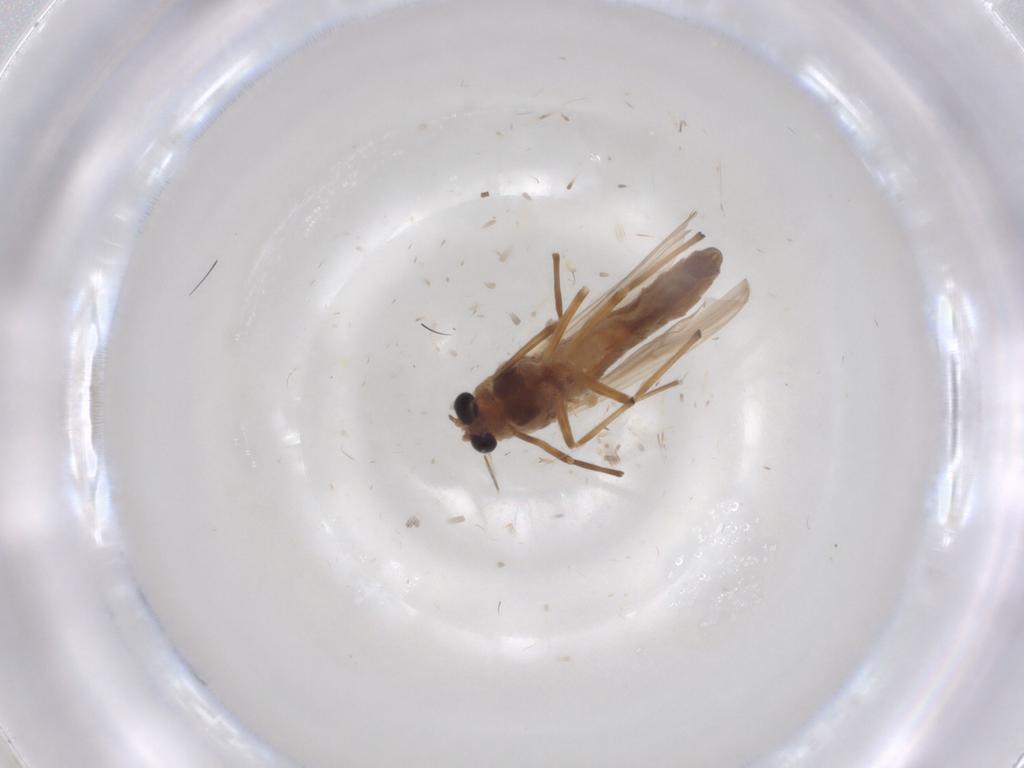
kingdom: Animalia
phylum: Arthropoda
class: Insecta
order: Diptera
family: Chironomidae
